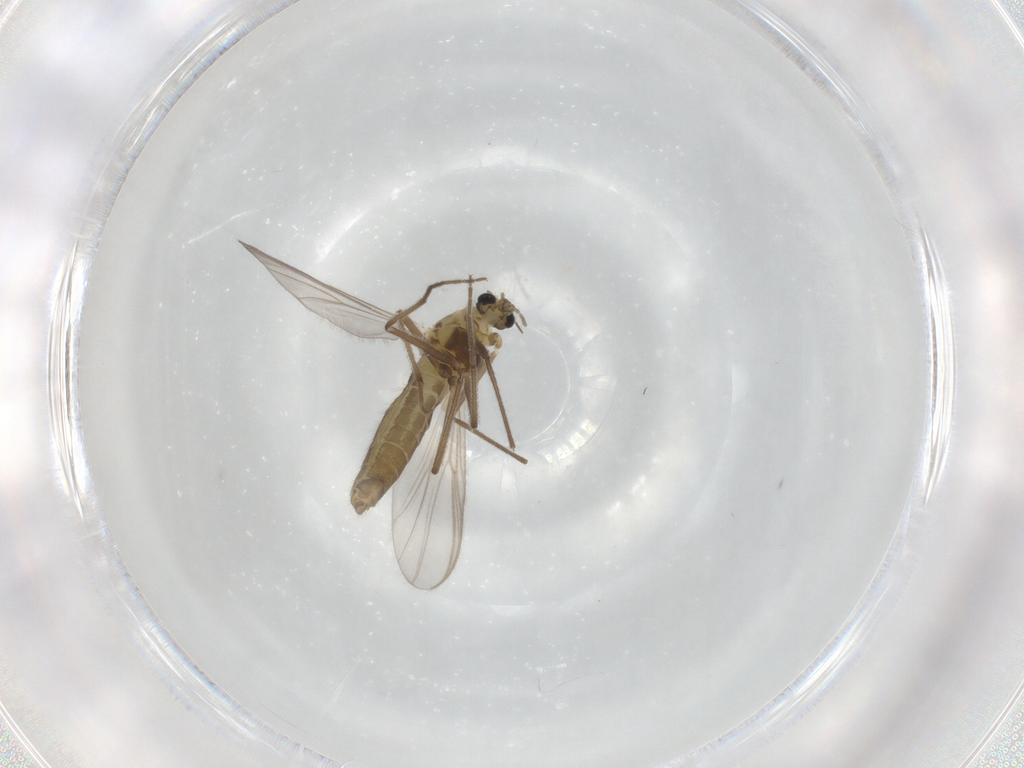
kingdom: Animalia
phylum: Arthropoda
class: Insecta
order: Diptera
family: Chironomidae
